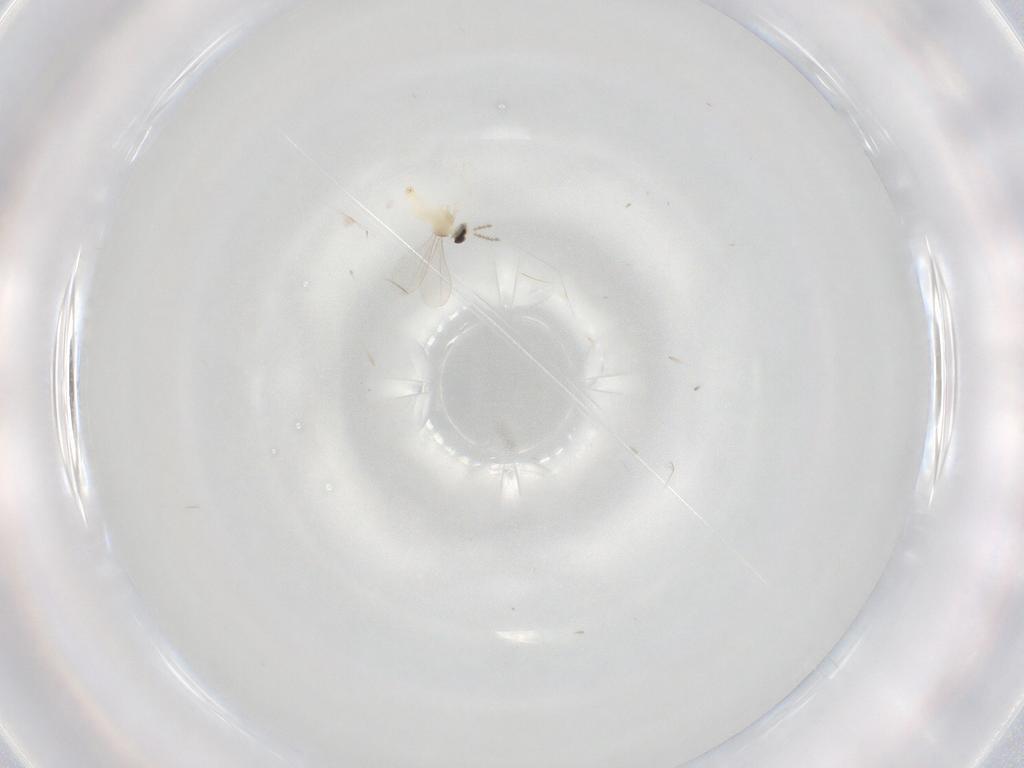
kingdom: Animalia
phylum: Arthropoda
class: Insecta
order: Diptera
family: Cecidomyiidae
